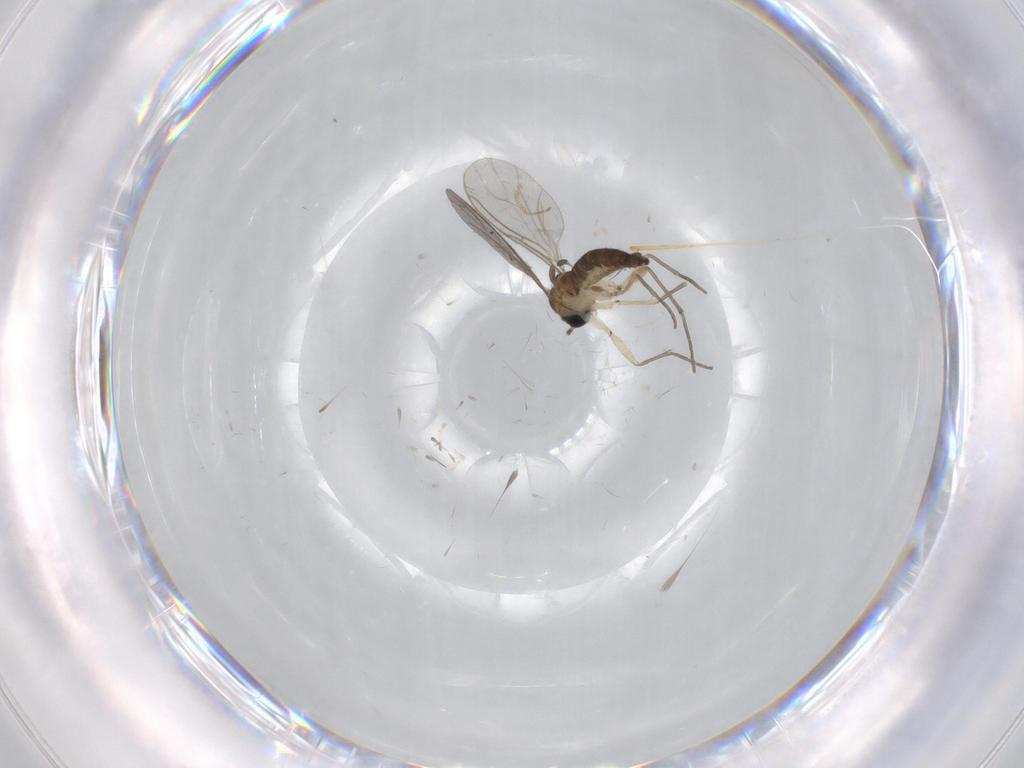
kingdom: Animalia
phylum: Arthropoda
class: Insecta
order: Diptera
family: Sciaridae
